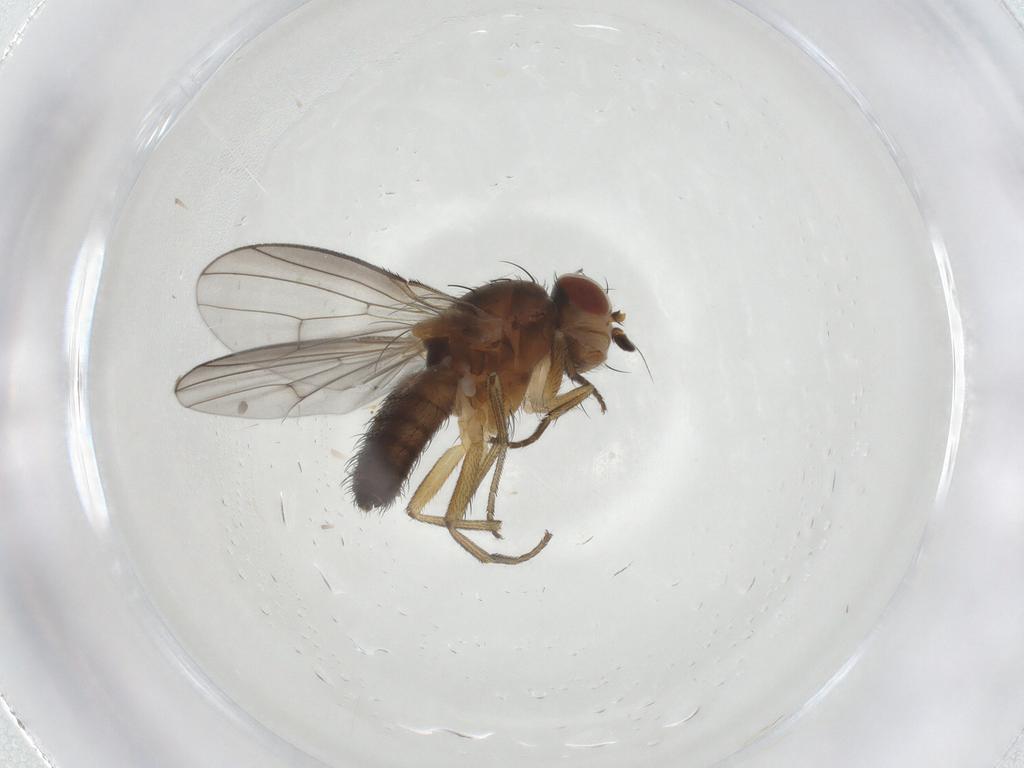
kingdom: Animalia
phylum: Arthropoda
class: Insecta
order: Diptera
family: Heleomyzidae
